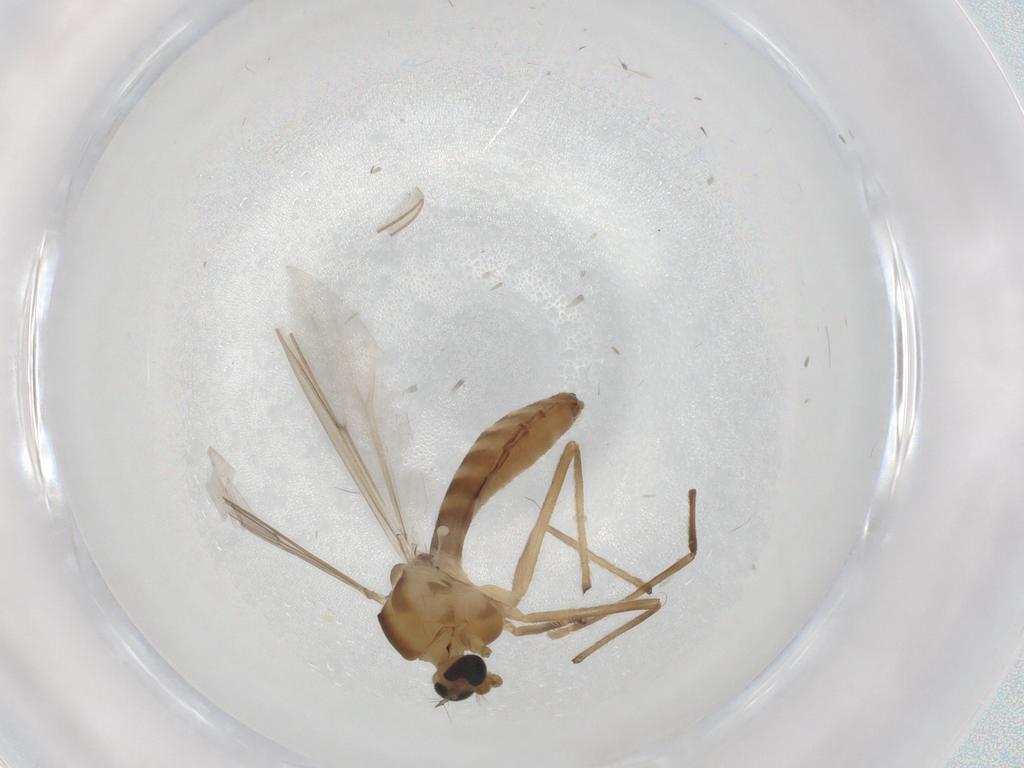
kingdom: Animalia
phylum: Arthropoda
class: Insecta
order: Diptera
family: Chironomidae
